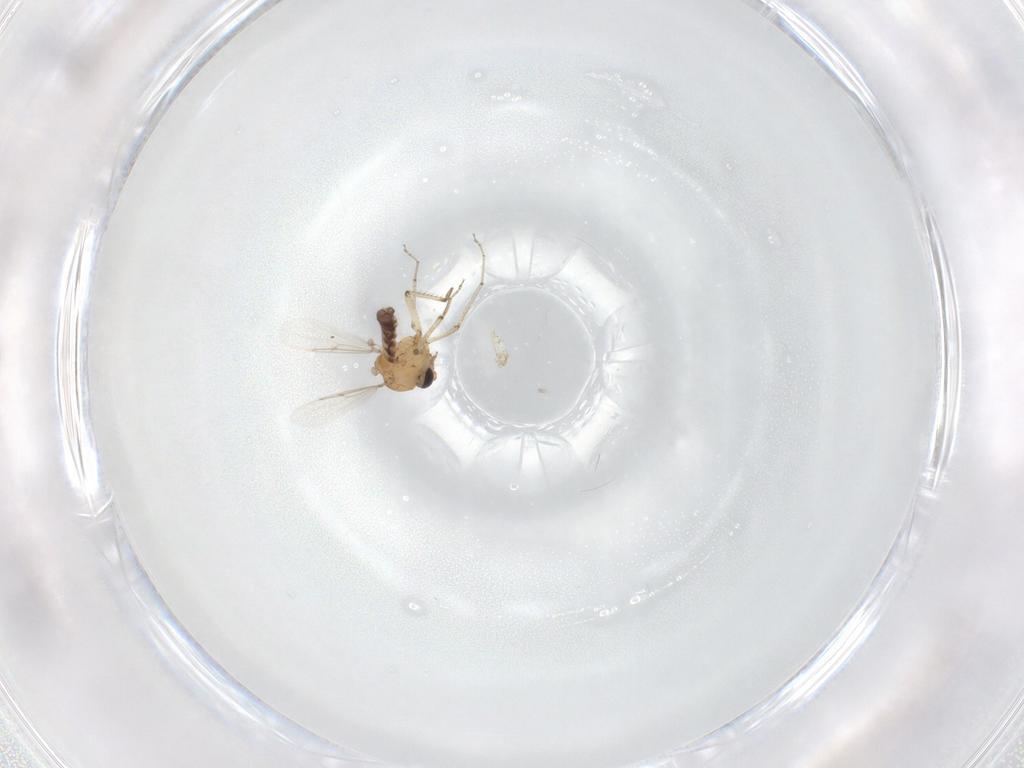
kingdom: Animalia
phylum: Arthropoda
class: Insecta
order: Diptera
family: Ceratopogonidae
